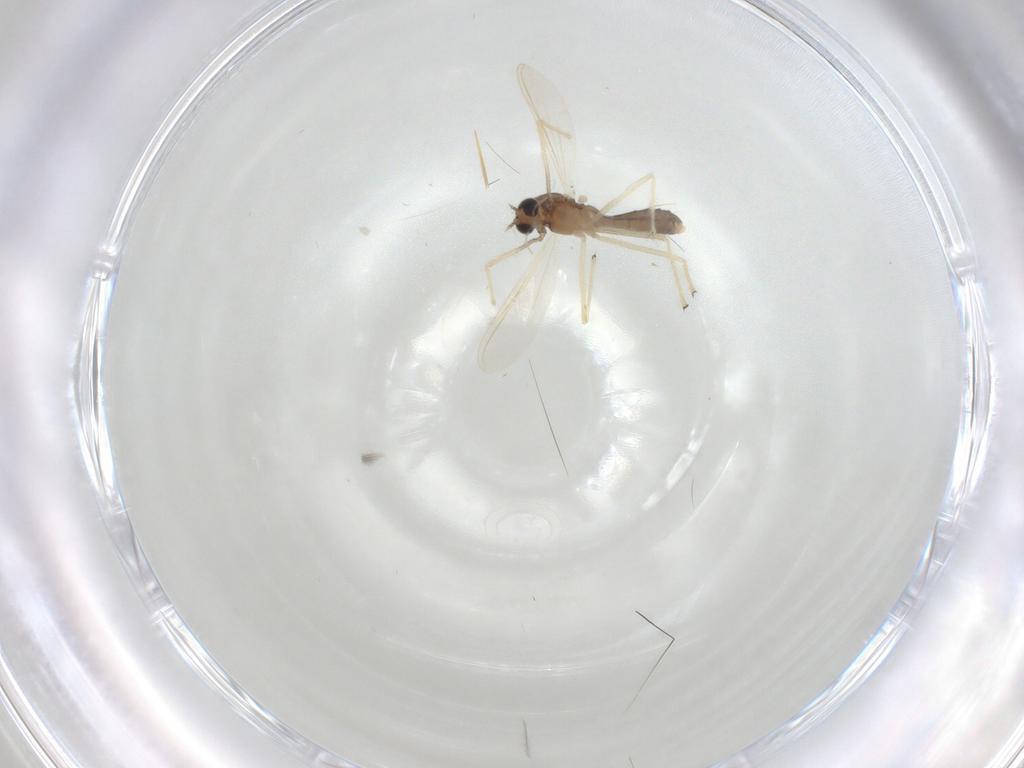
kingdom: Animalia
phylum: Arthropoda
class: Insecta
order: Diptera
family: Chironomidae
